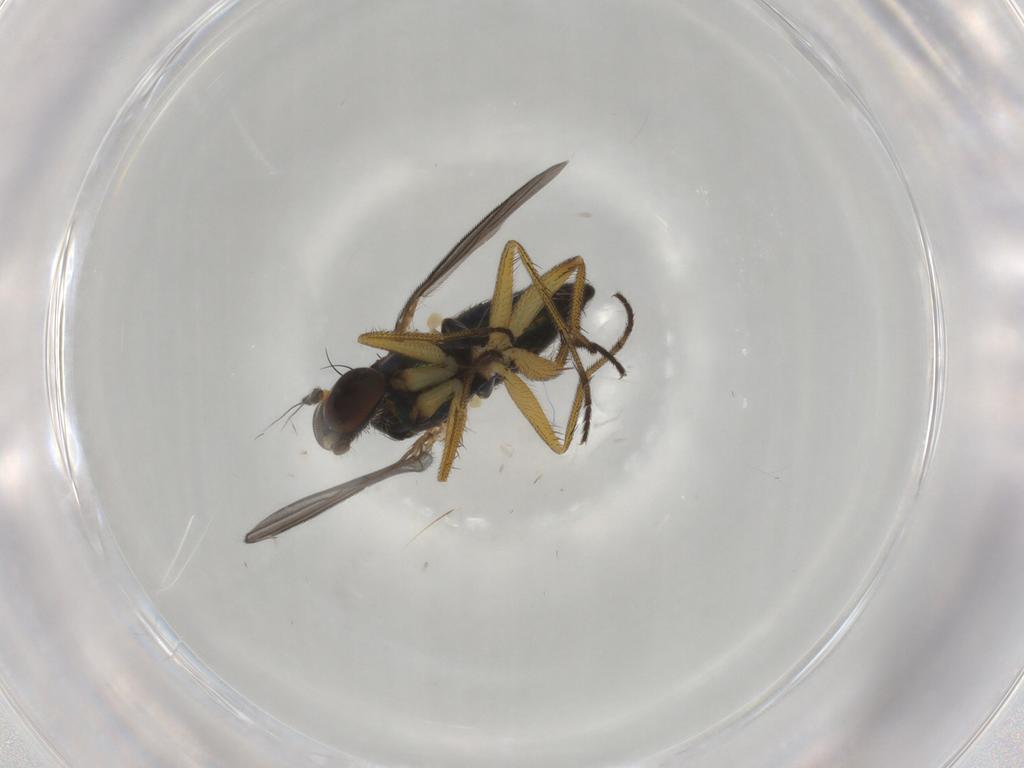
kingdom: Animalia
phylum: Arthropoda
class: Insecta
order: Diptera
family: Dolichopodidae
